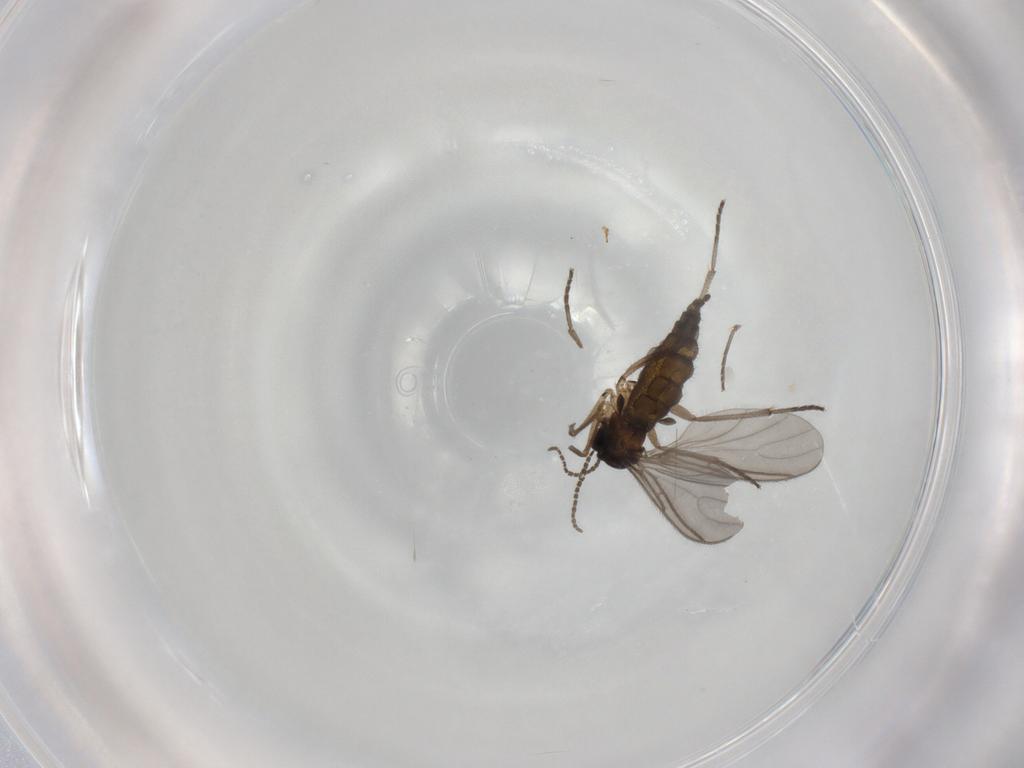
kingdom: Animalia
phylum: Arthropoda
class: Insecta
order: Diptera
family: Sciaridae
